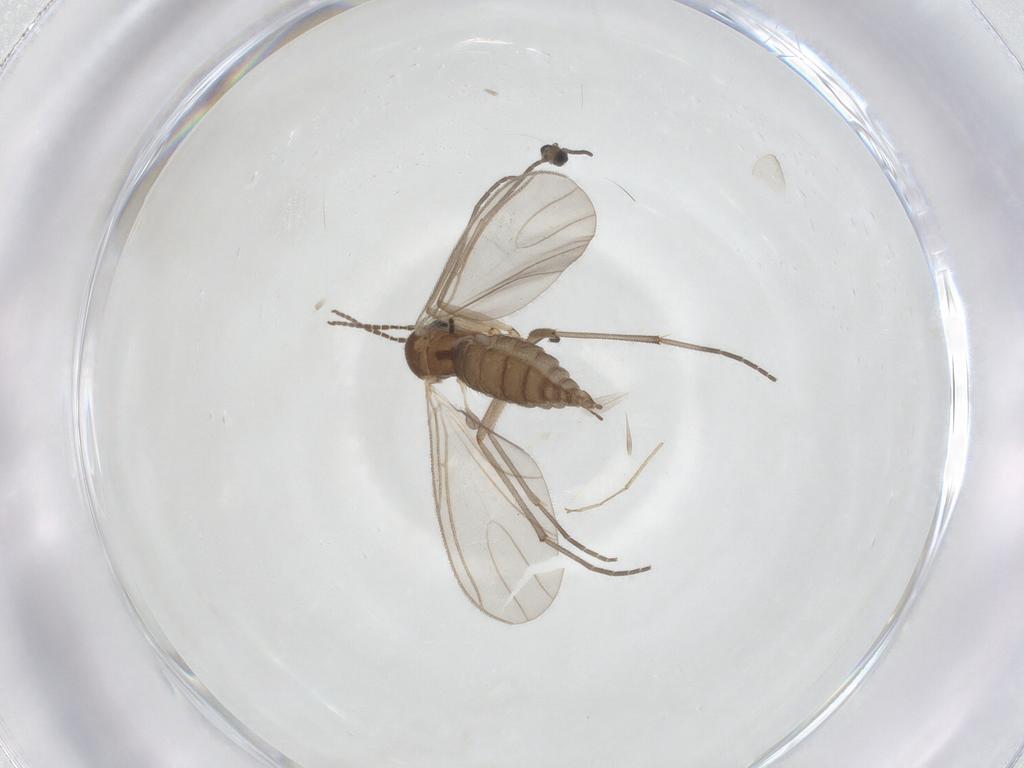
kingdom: Animalia
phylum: Arthropoda
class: Insecta
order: Diptera
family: Sciaridae
